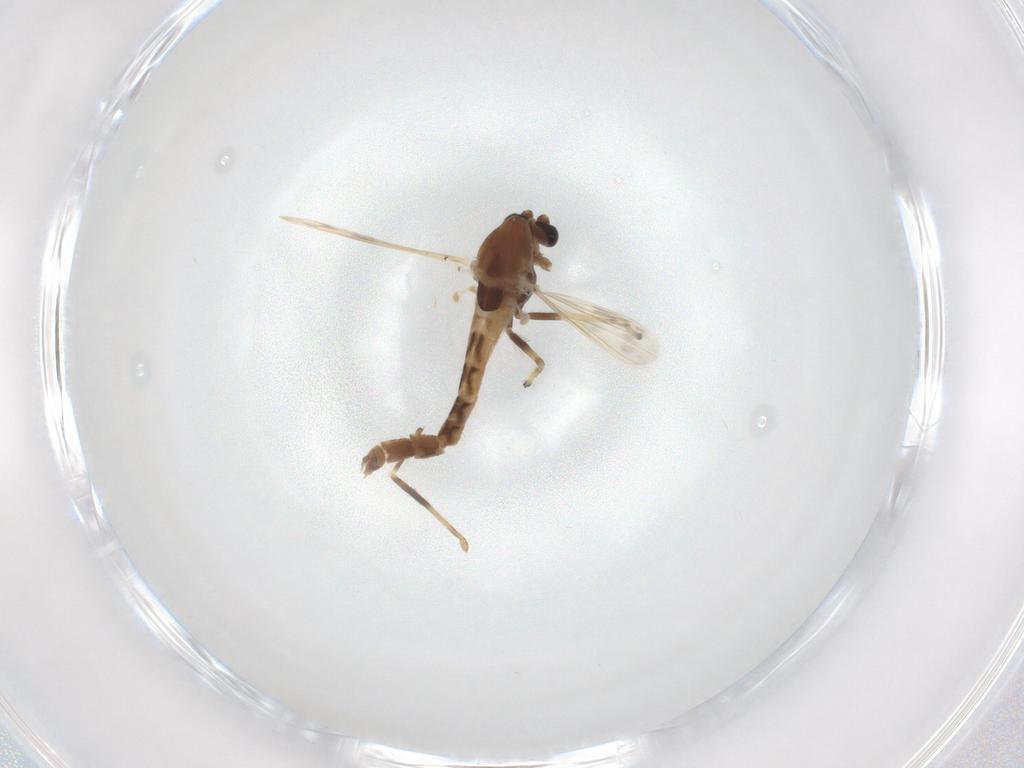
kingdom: Animalia
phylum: Arthropoda
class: Insecta
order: Diptera
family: Chironomidae
